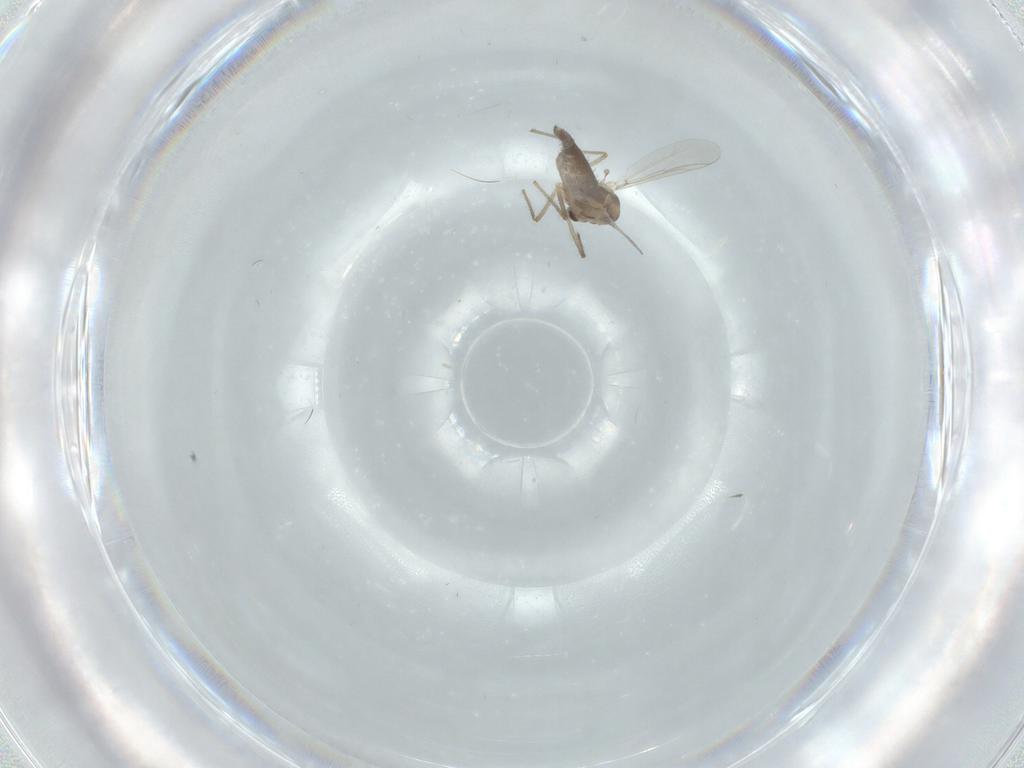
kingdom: Animalia
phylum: Arthropoda
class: Insecta
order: Diptera
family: Chironomidae
